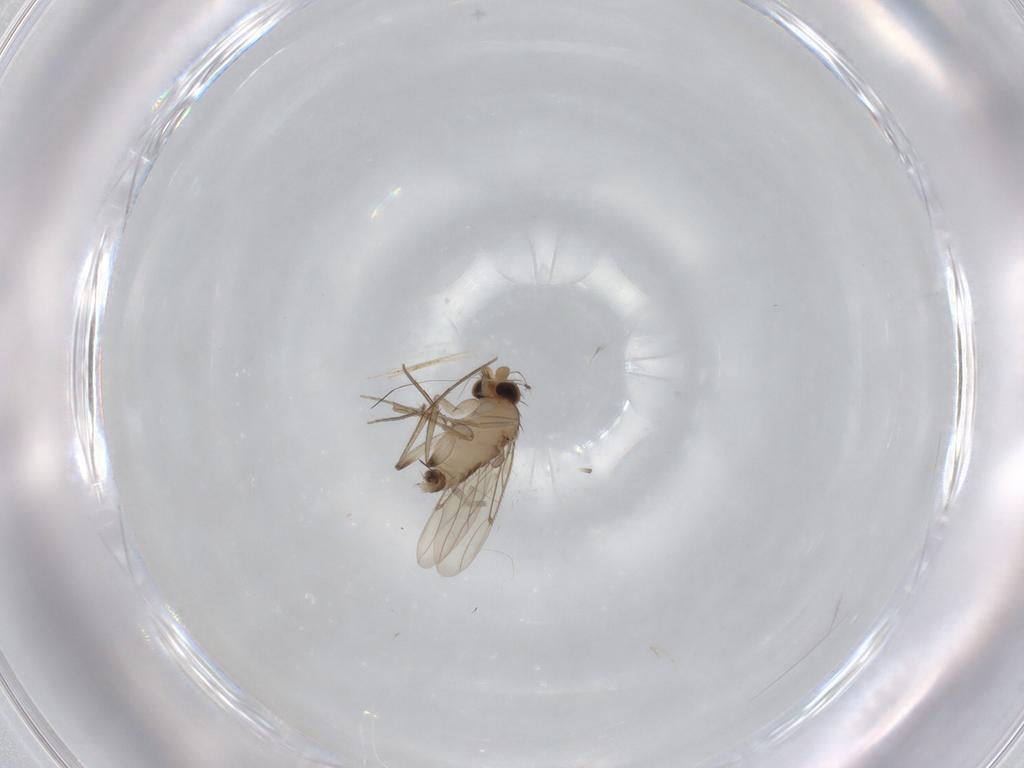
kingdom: Animalia
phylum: Arthropoda
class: Insecta
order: Diptera
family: Phoridae
